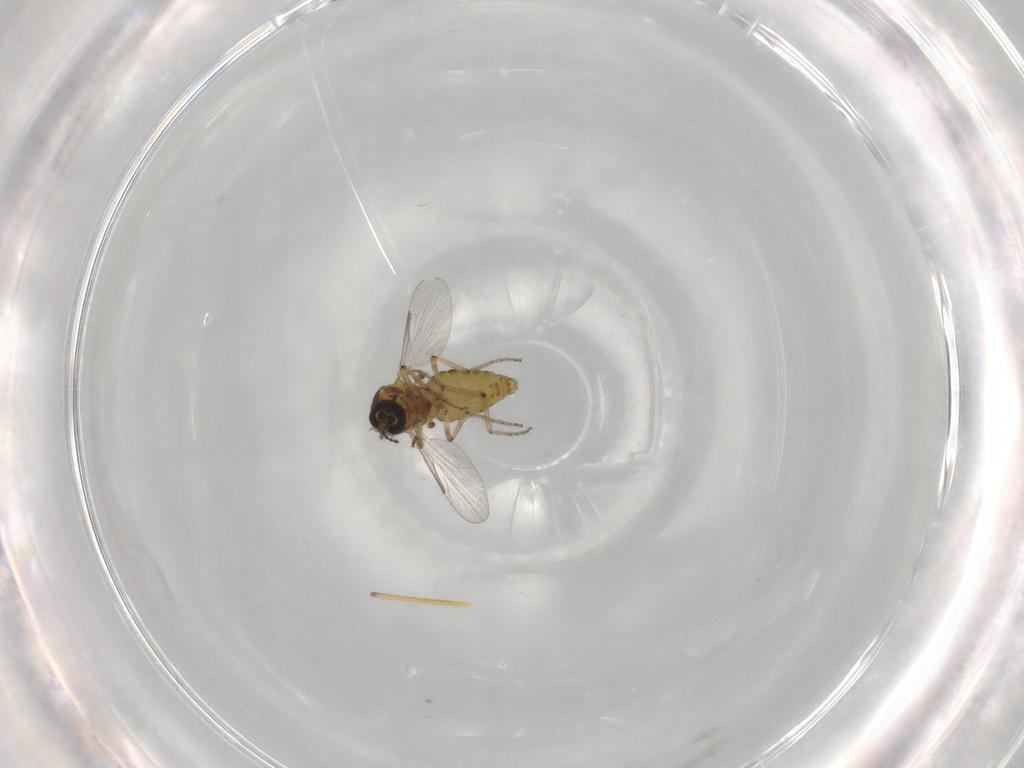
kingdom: Animalia
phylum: Arthropoda
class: Insecta
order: Diptera
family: Ceratopogonidae
